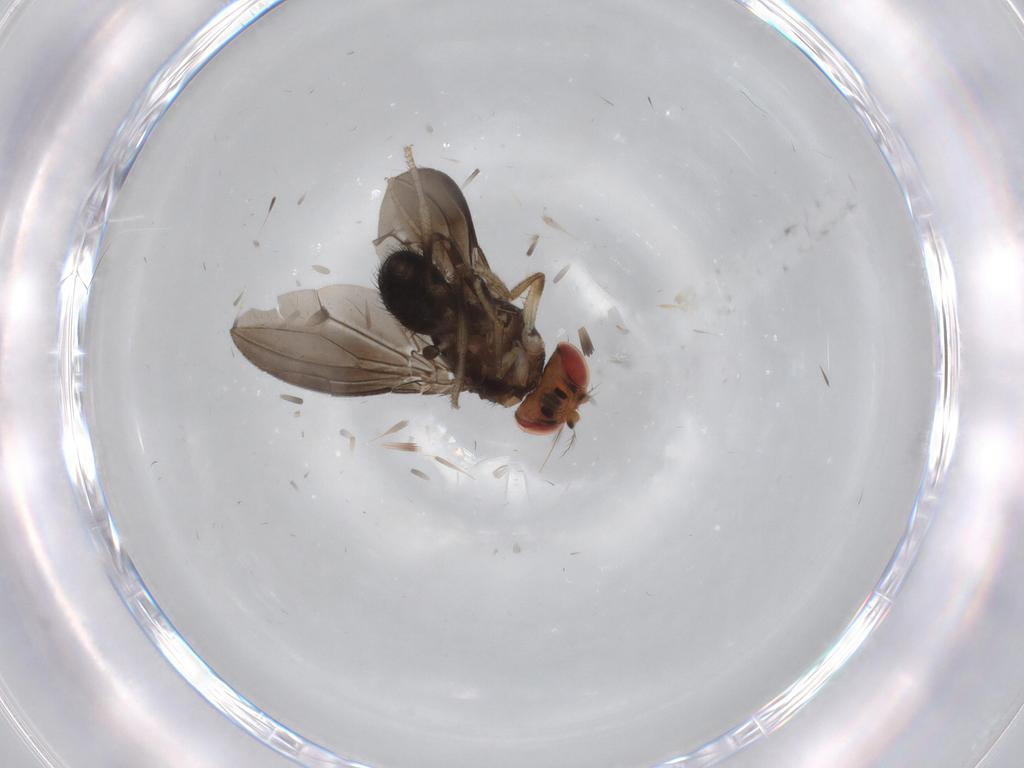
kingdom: Animalia
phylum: Arthropoda
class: Insecta
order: Diptera
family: Drosophilidae
